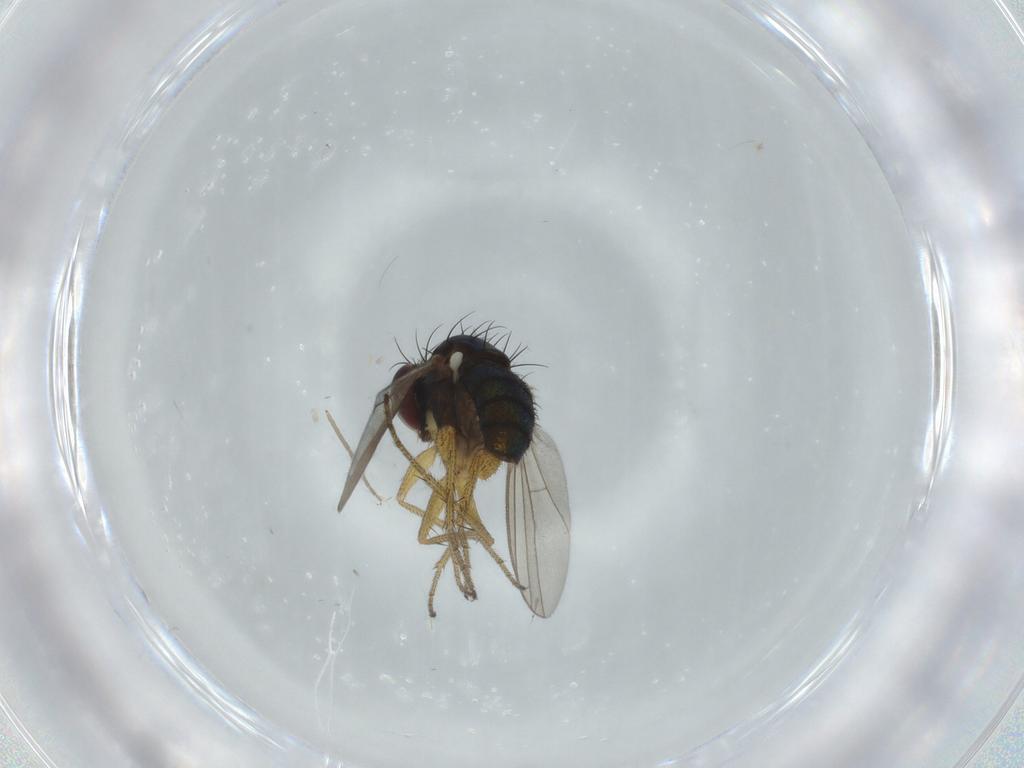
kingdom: Animalia
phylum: Arthropoda
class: Insecta
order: Diptera
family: Dolichopodidae
